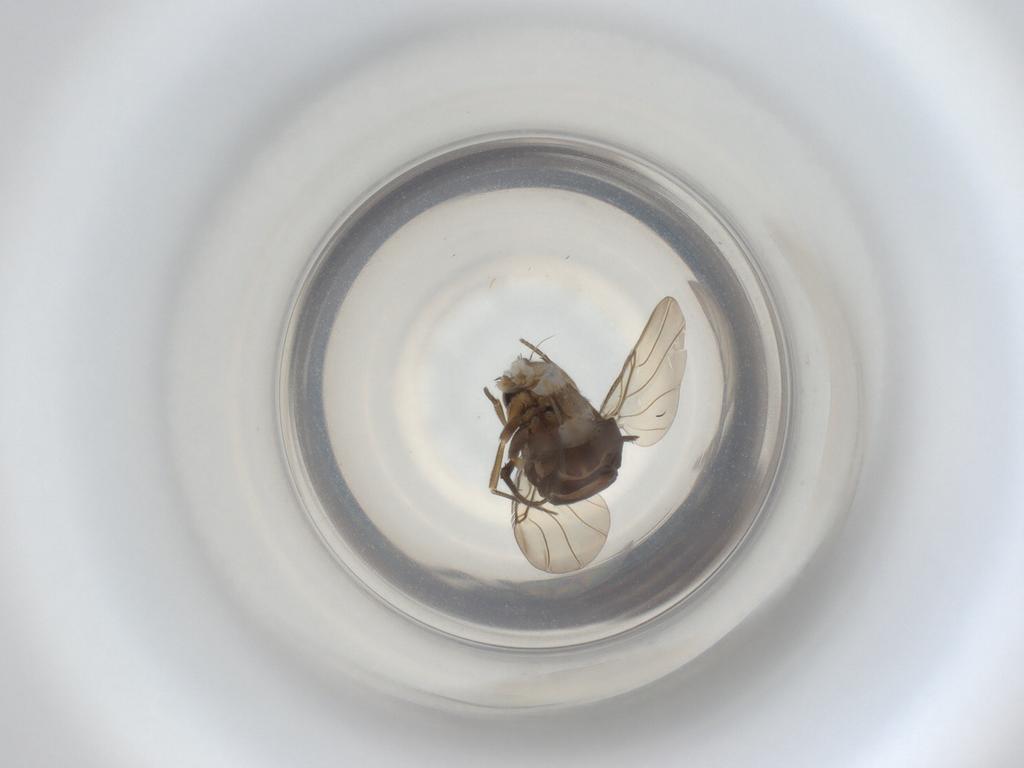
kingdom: Animalia
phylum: Arthropoda
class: Insecta
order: Diptera
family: Phoridae
